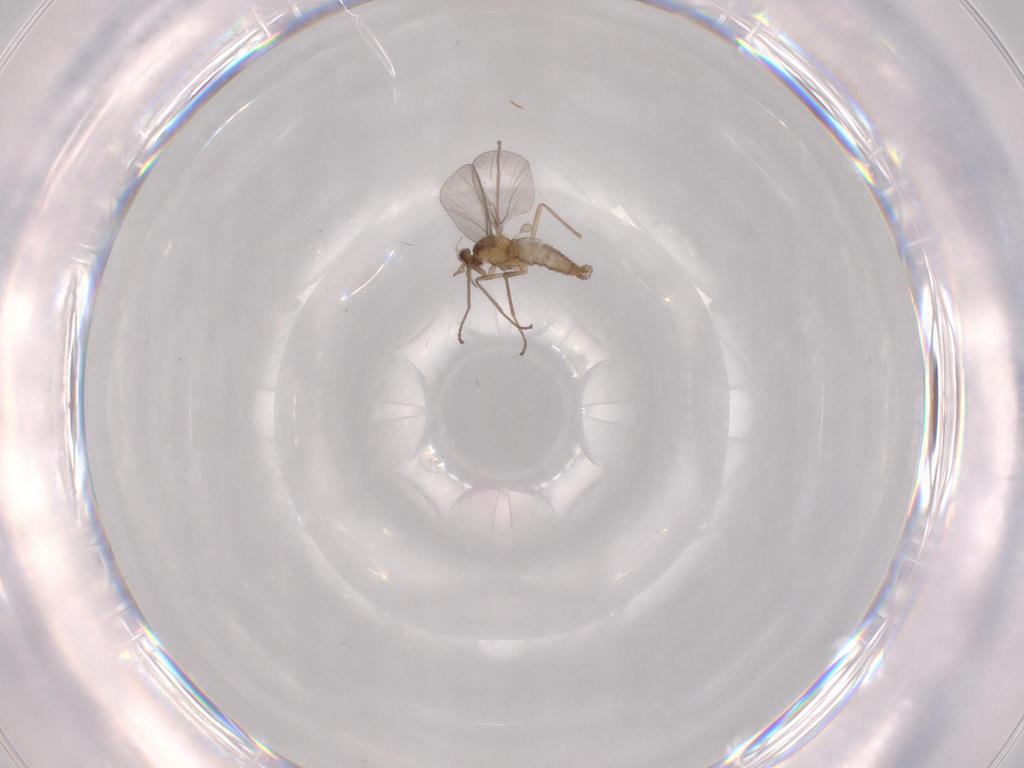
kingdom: Animalia
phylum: Arthropoda
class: Insecta
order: Diptera
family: Cecidomyiidae
